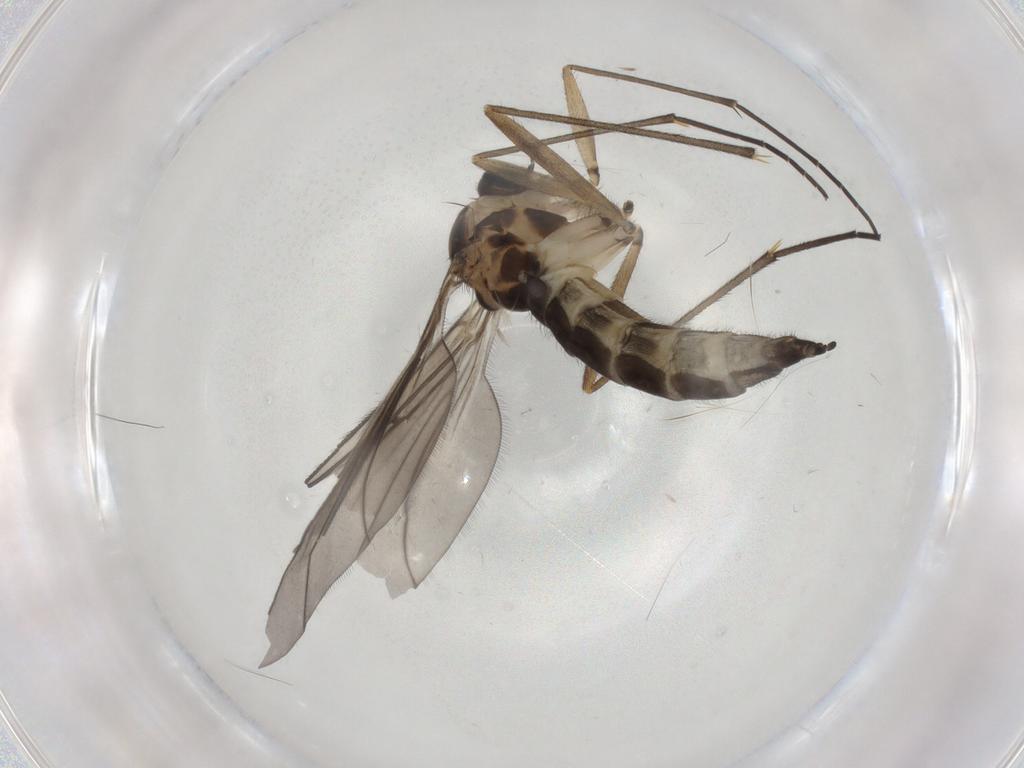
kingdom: Animalia
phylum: Arthropoda
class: Insecta
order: Diptera
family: Sciaridae
